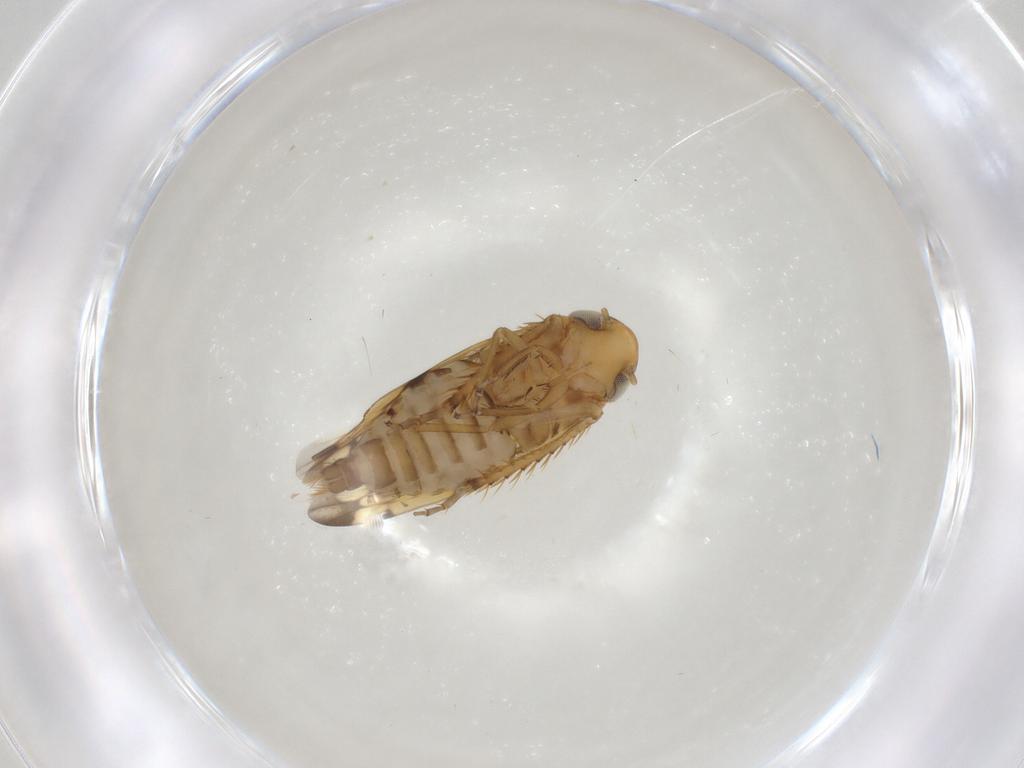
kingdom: Animalia
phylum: Arthropoda
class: Insecta
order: Hemiptera
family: Cicadellidae
